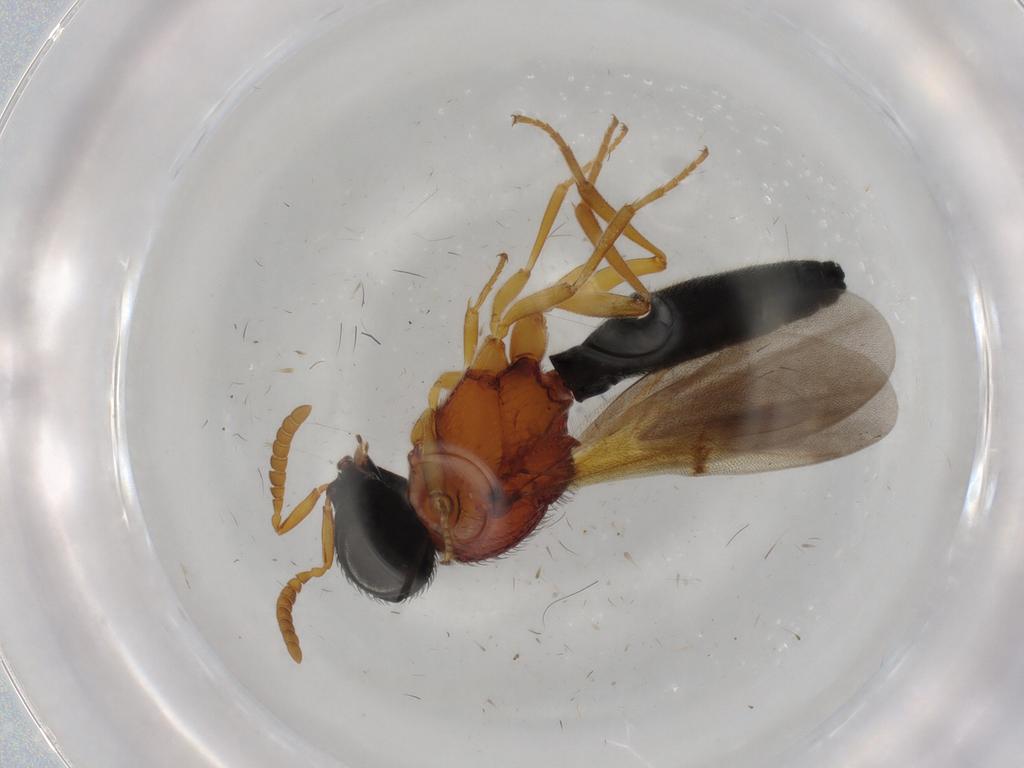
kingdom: Animalia
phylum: Arthropoda
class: Insecta
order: Hymenoptera
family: Scelionidae
